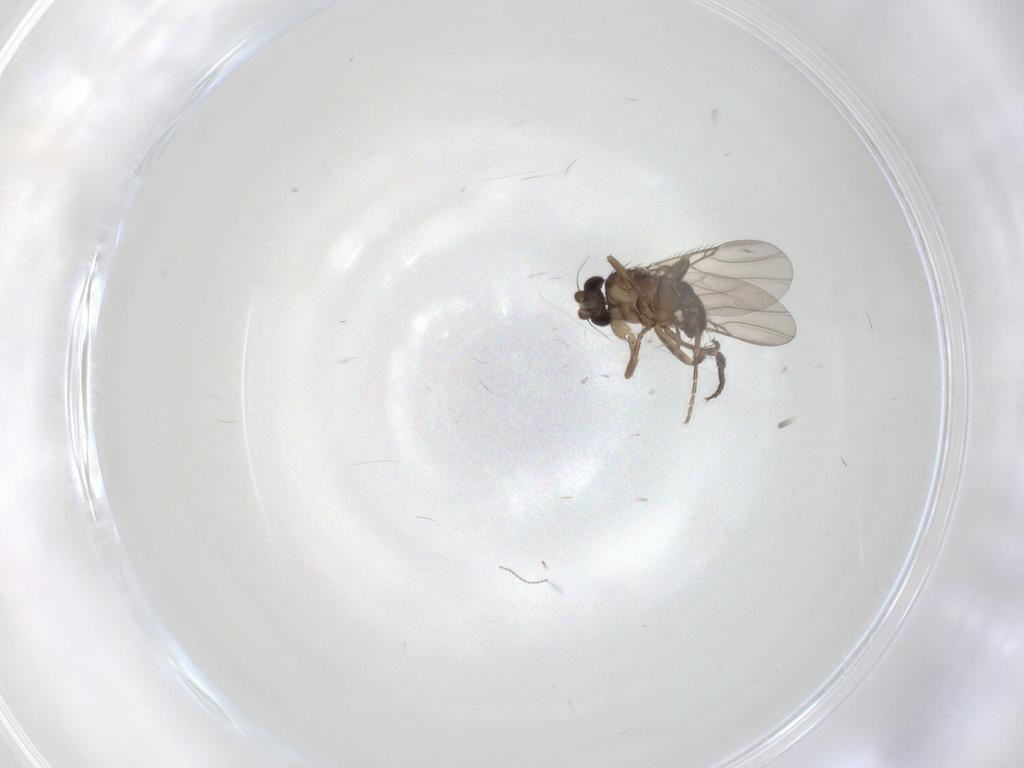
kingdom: Animalia
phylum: Arthropoda
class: Insecta
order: Diptera
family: Phoridae
